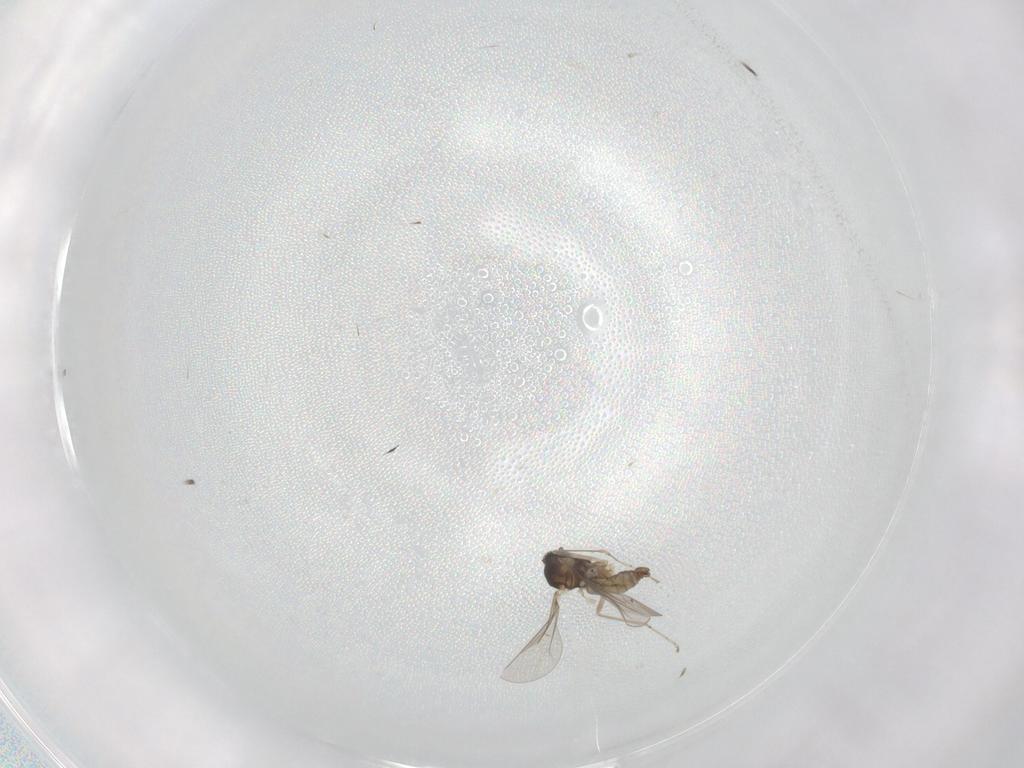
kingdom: Animalia
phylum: Arthropoda
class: Insecta
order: Diptera
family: Cecidomyiidae
